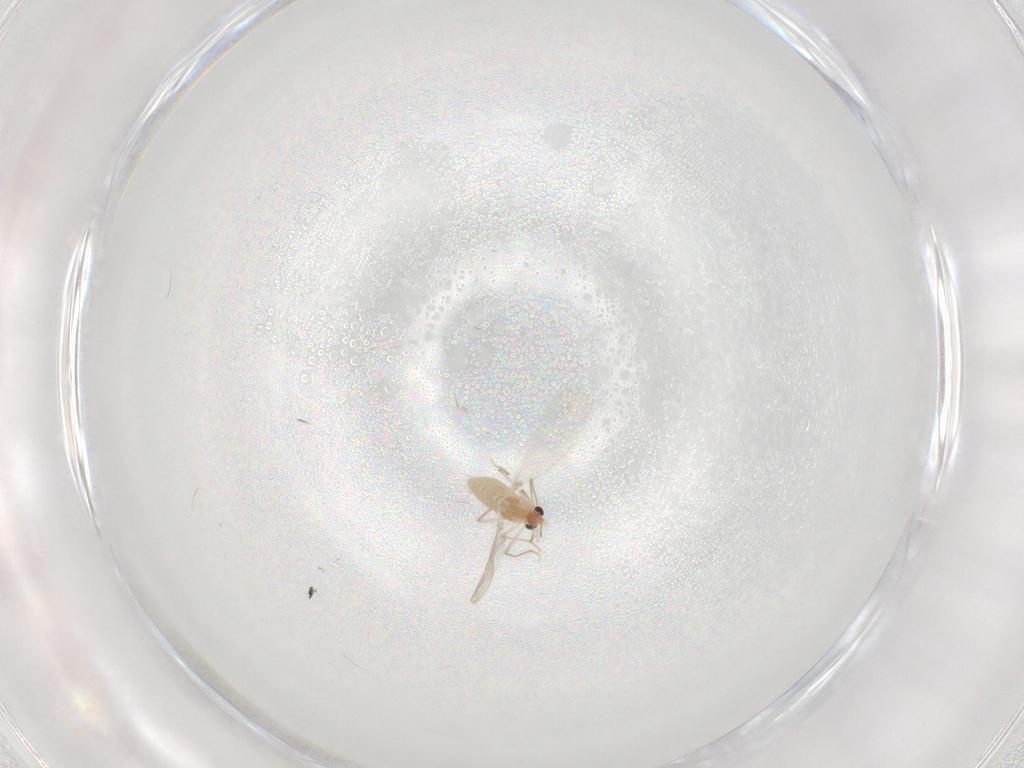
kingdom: Animalia
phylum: Arthropoda
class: Insecta
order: Diptera
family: Chironomidae
